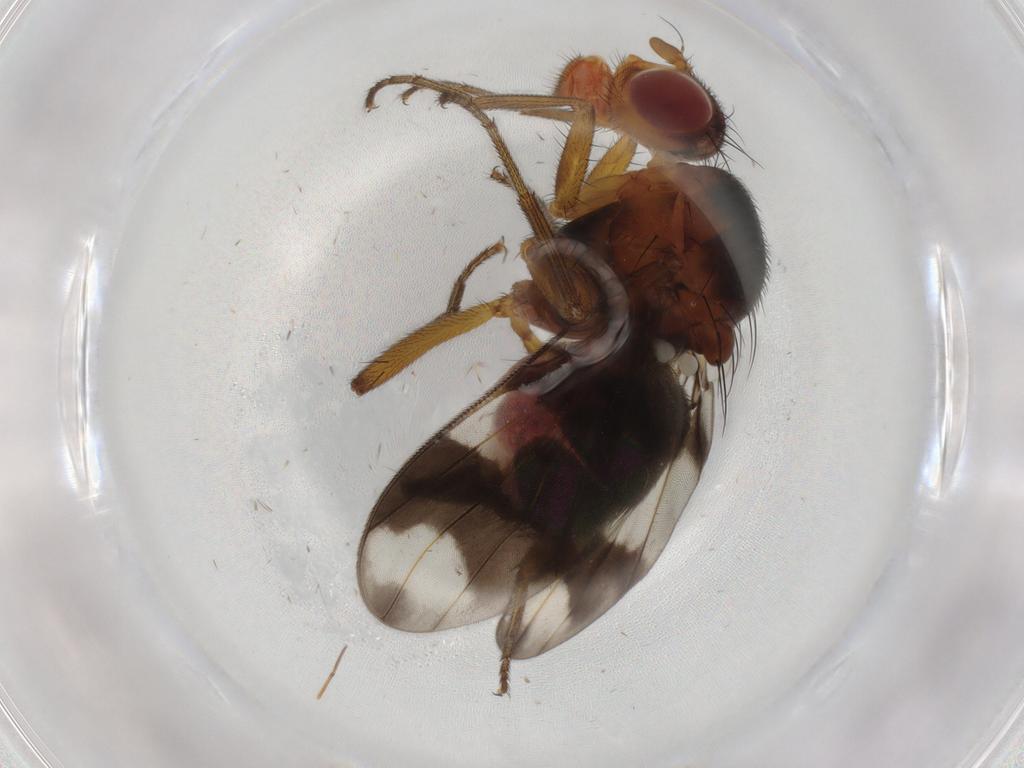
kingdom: Animalia
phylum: Arthropoda
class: Insecta
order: Diptera
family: Richardiidae
